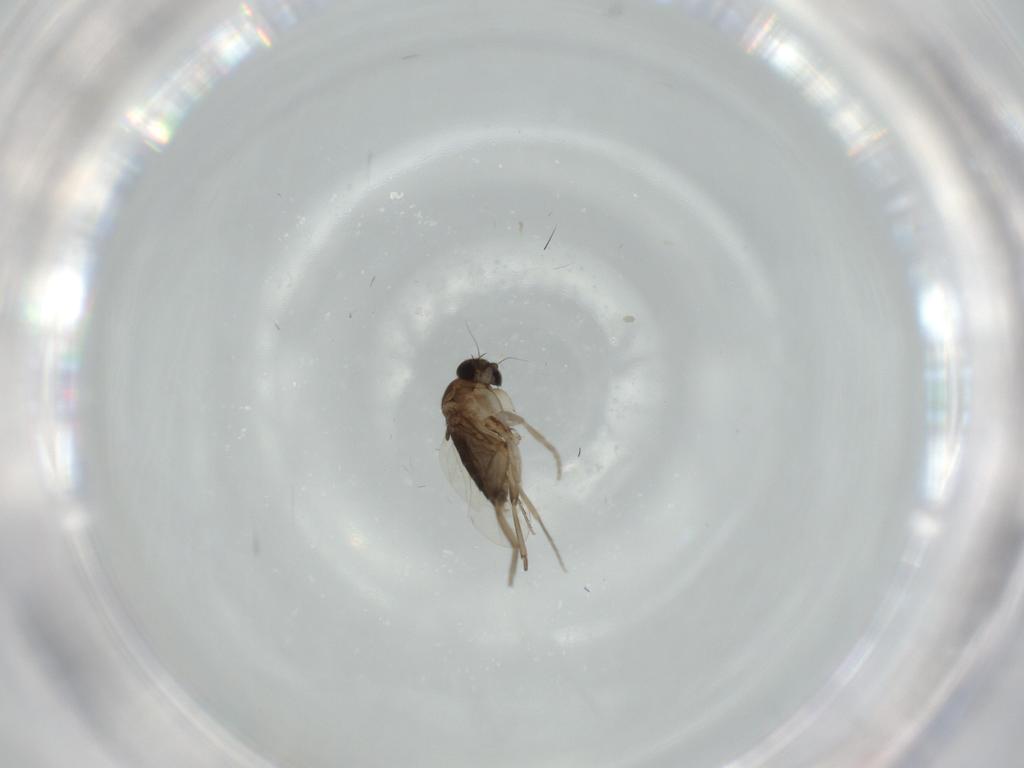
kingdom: Animalia
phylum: Arthropoda
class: Insecta
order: Diptera
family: Phoridae
